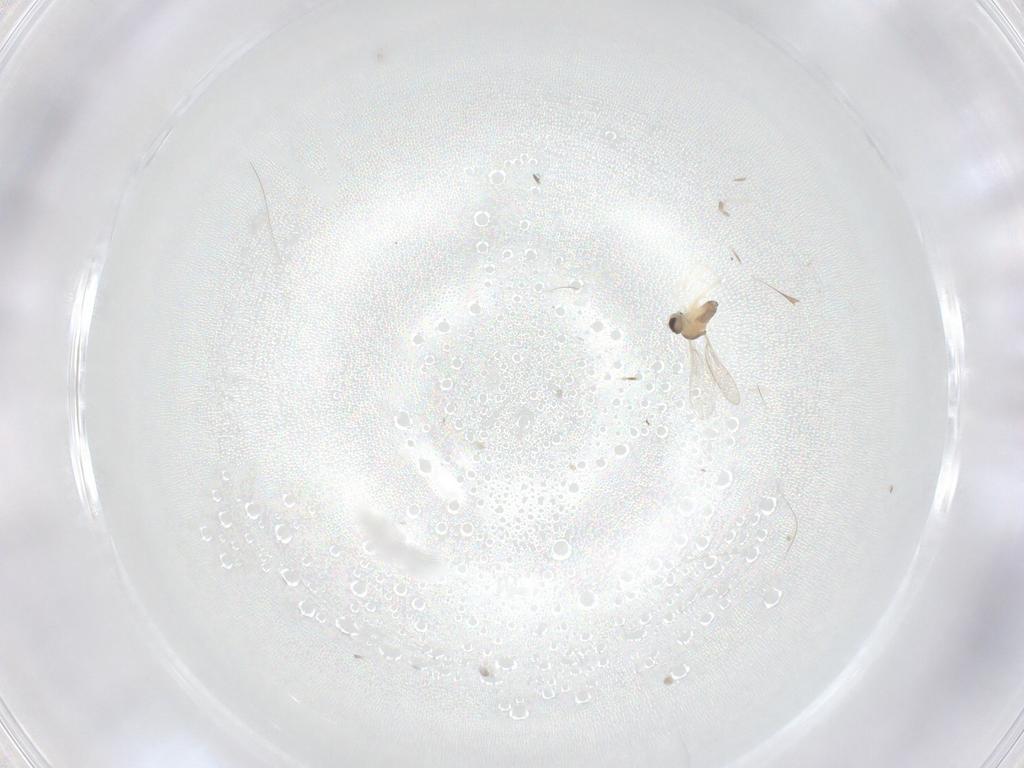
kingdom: Animalia
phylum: Arthropoda
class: Insecta
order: Diptera
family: Cecidomyiidae
